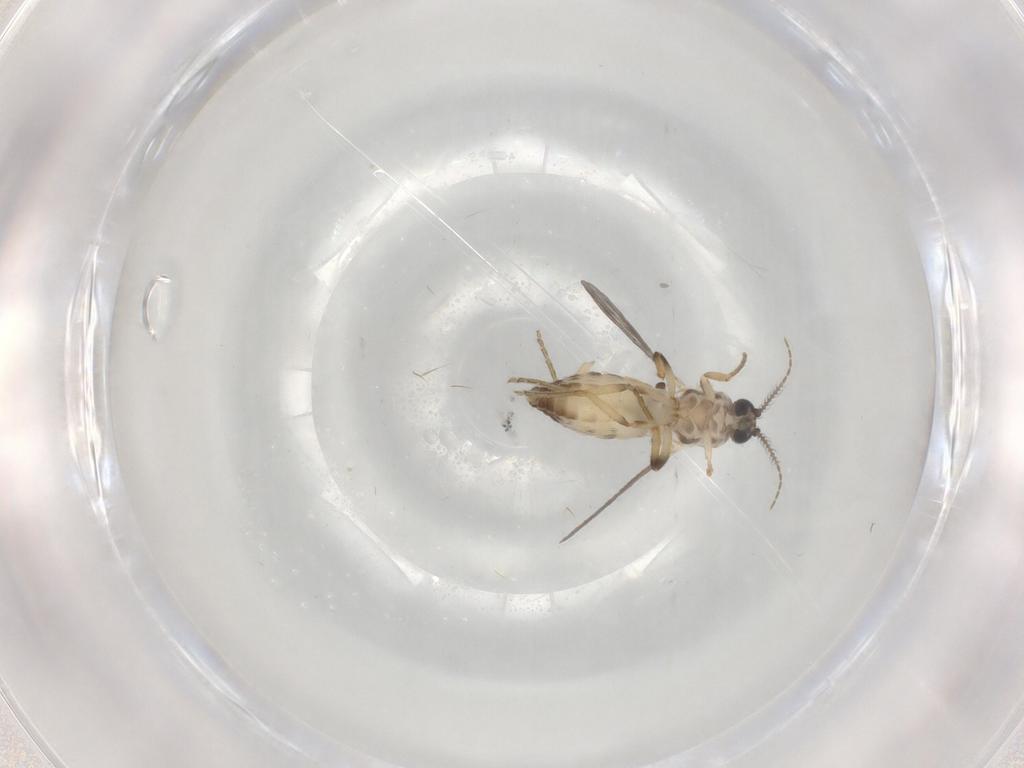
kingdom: Animalia
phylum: Arthropoda
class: Insecta
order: Diptera
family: Ceratopogonidae
